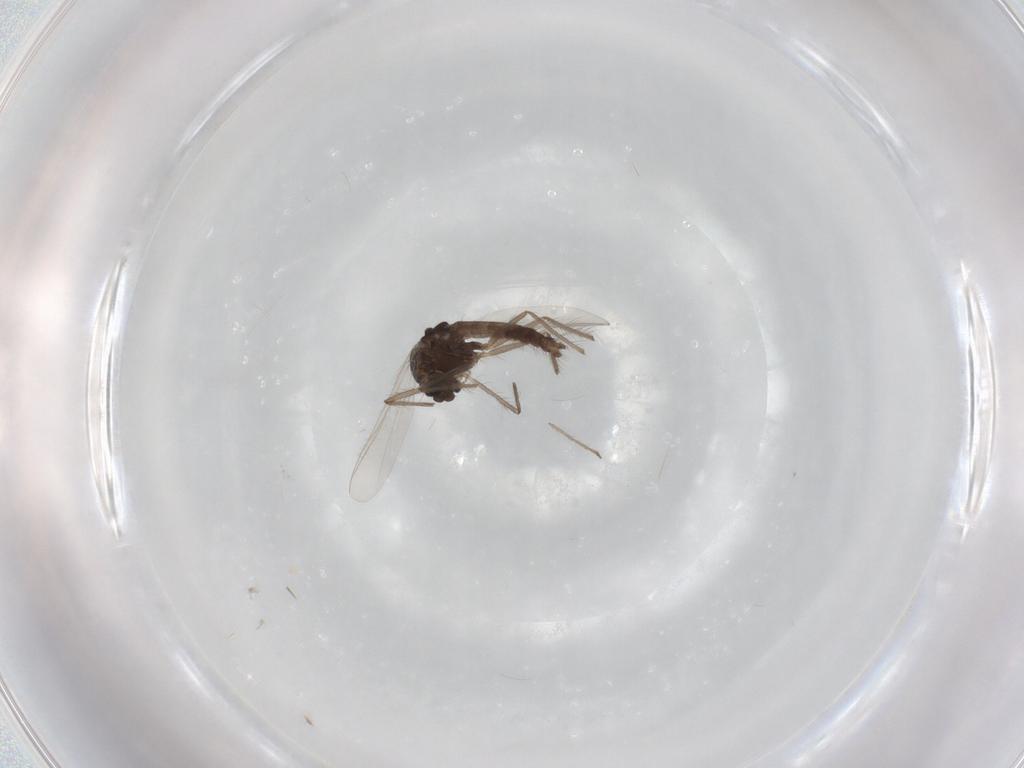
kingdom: Animalia
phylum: Arthropoda
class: Insecta
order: Diptera
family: Chironomidae
